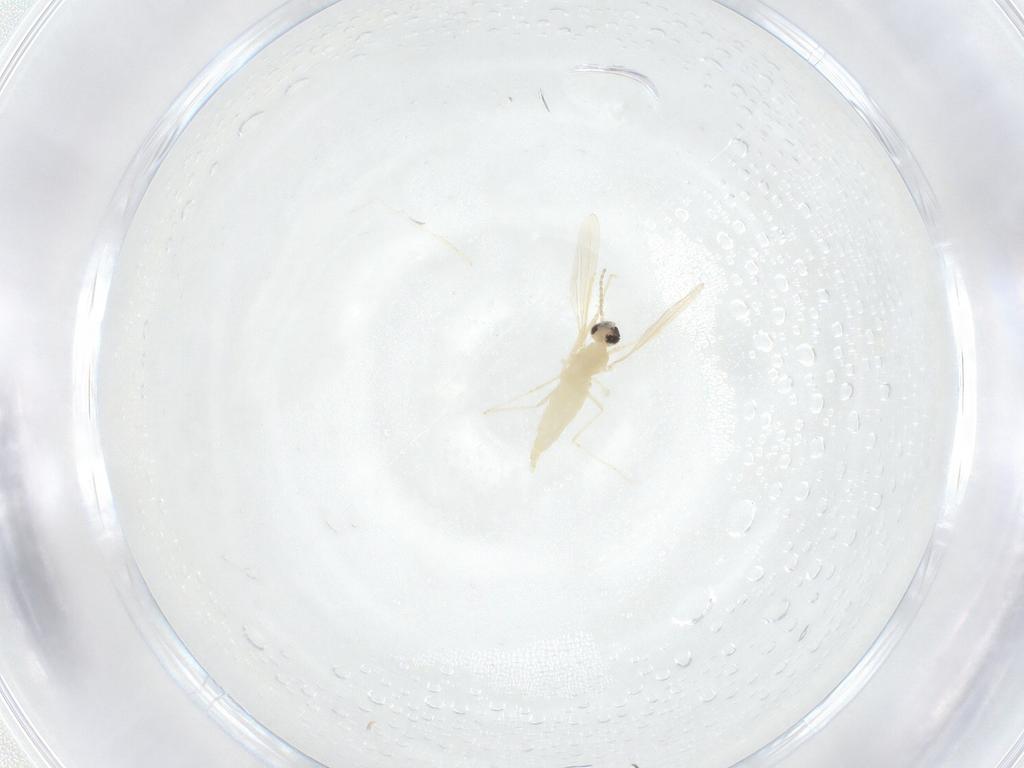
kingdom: Animalia
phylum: Arthropoda
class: Insecta
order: Diptera
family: Cecidomyiidae
